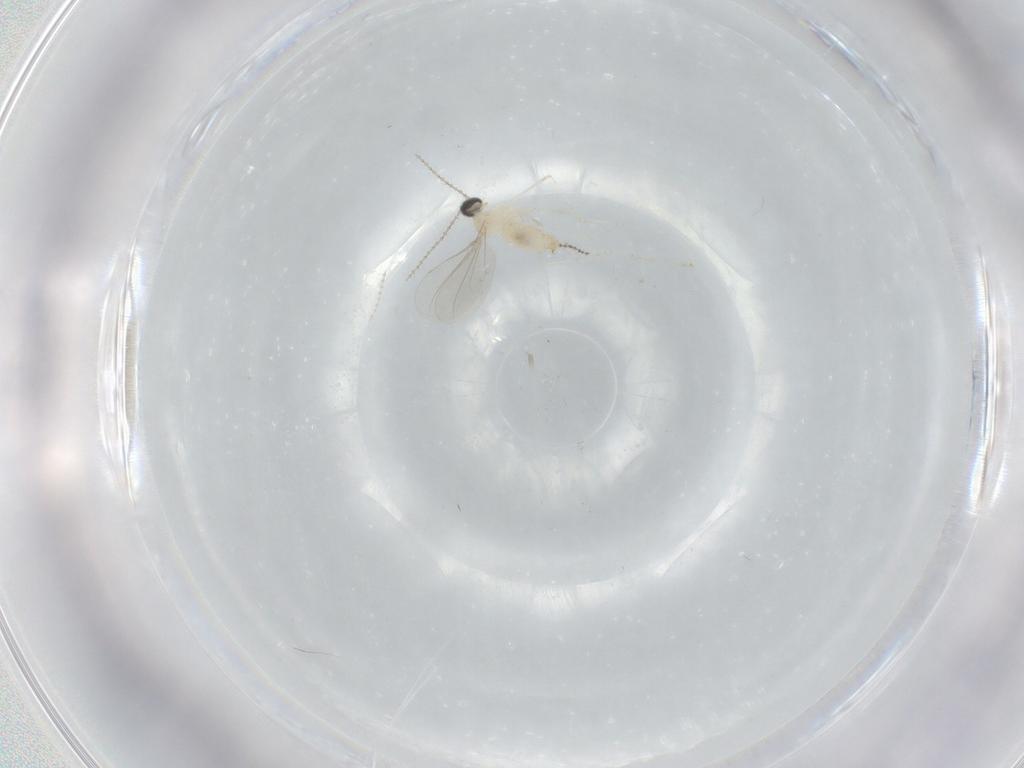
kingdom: Animalia
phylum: Arthropoda
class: Insecta
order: Diptera
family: Cecidomyiidae
